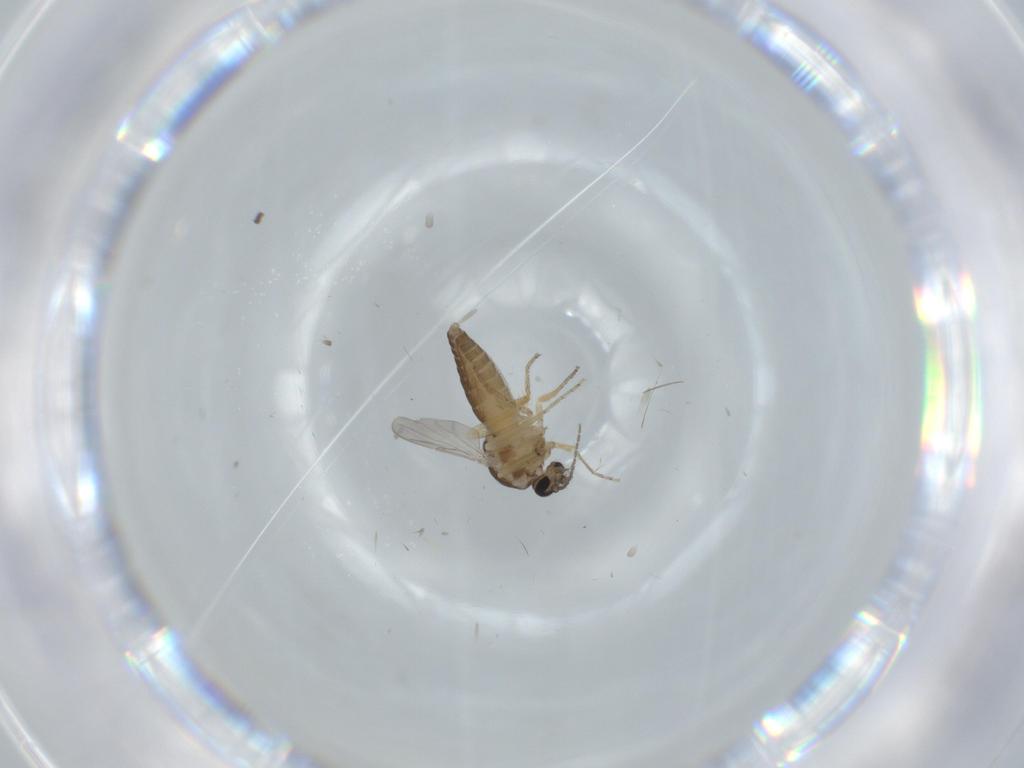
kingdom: Animalia
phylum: Arthropoda
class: Insecta
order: Diptera
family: Ceratopogonidae
